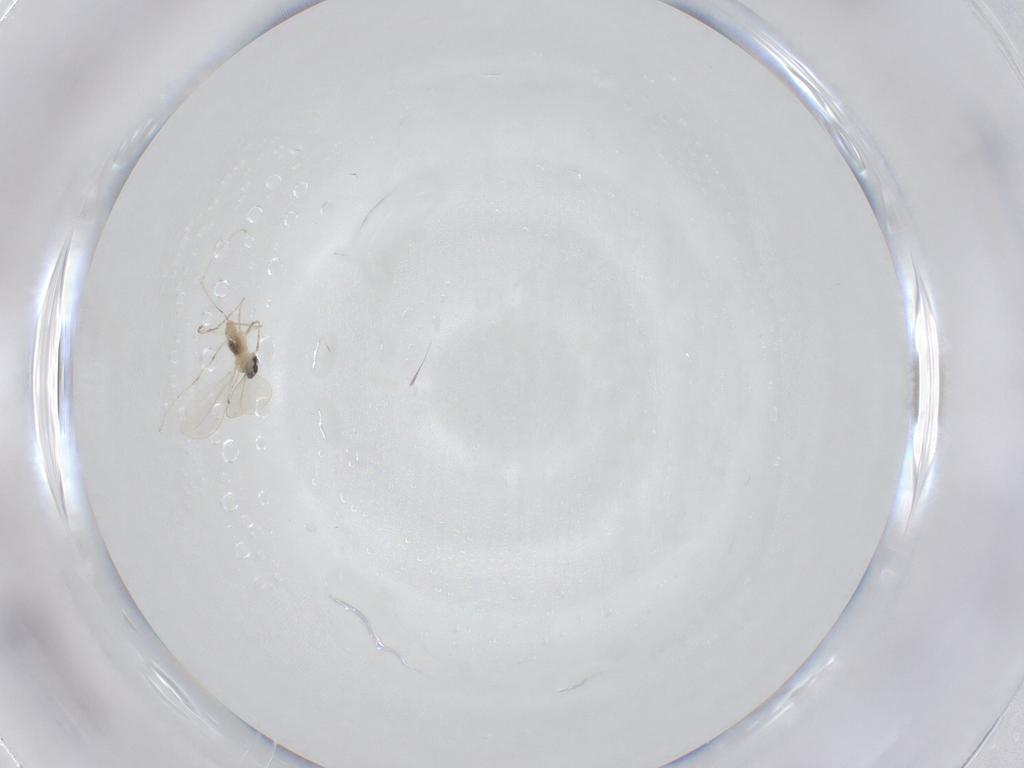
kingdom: Animalia
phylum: Arthropoda
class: Insecta
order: Diptera
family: Cecidomyiidae
